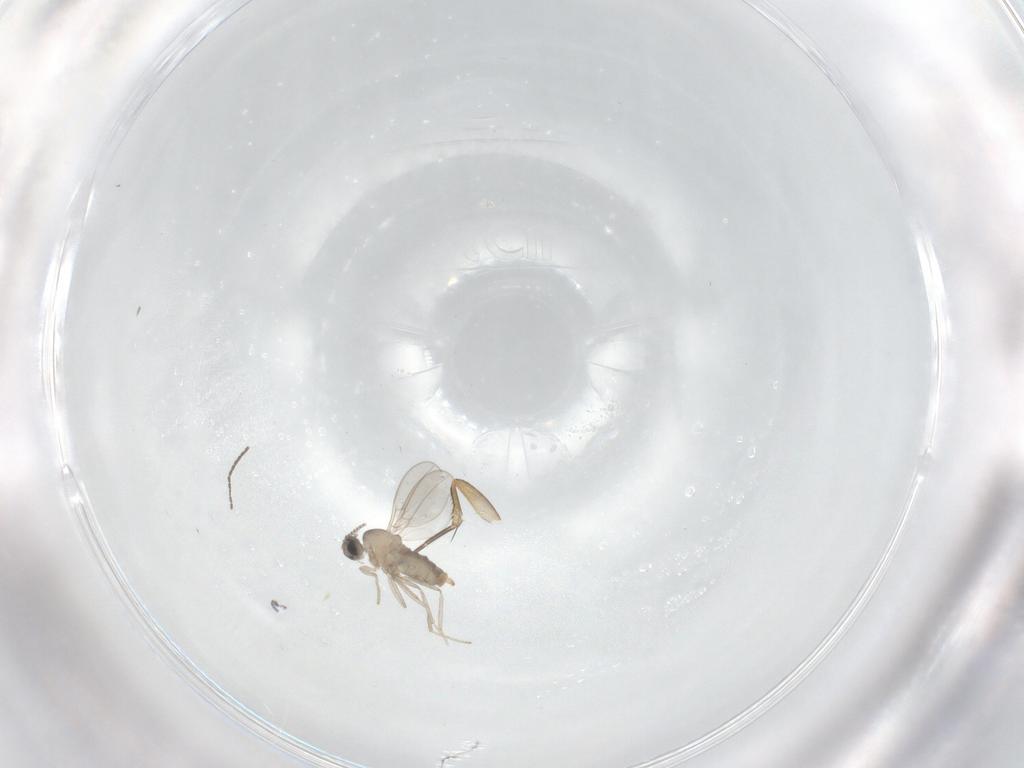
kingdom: Animalia
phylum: Arthropoda
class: Insecta
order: Diptera
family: Phoridae
